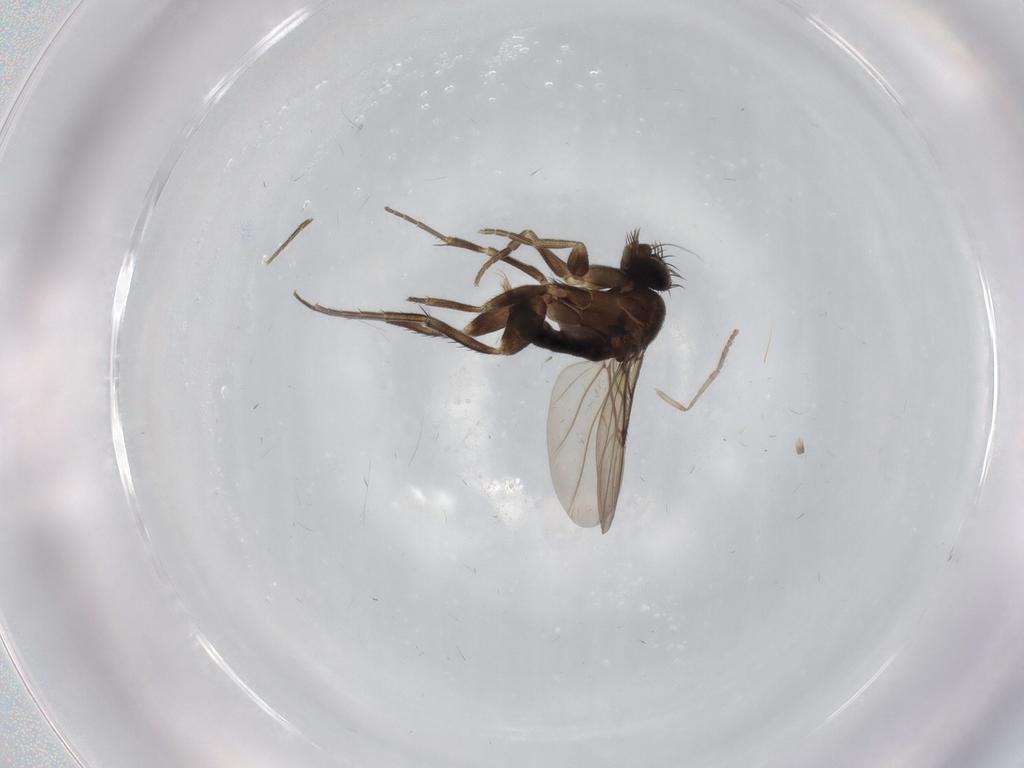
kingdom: Animalia
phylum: Arthropoda
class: Insecta
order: Diptera
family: Phoridae
